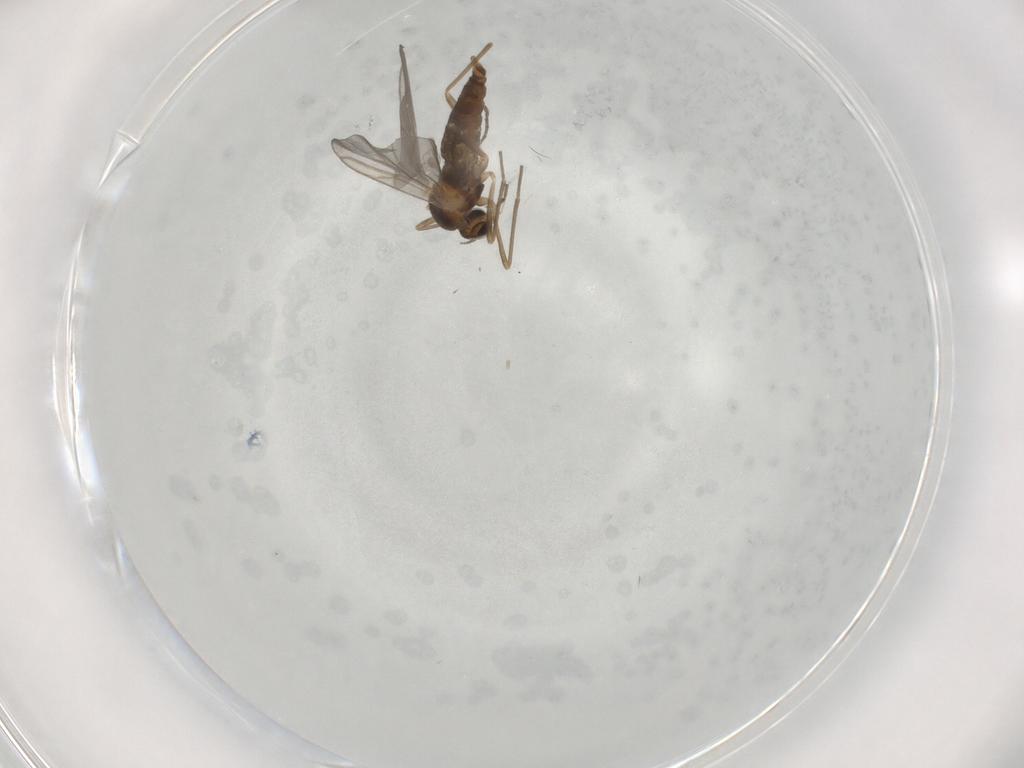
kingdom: Animalia
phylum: Arthropoda
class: Insecta
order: Diptera
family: Cecidomyiidae
